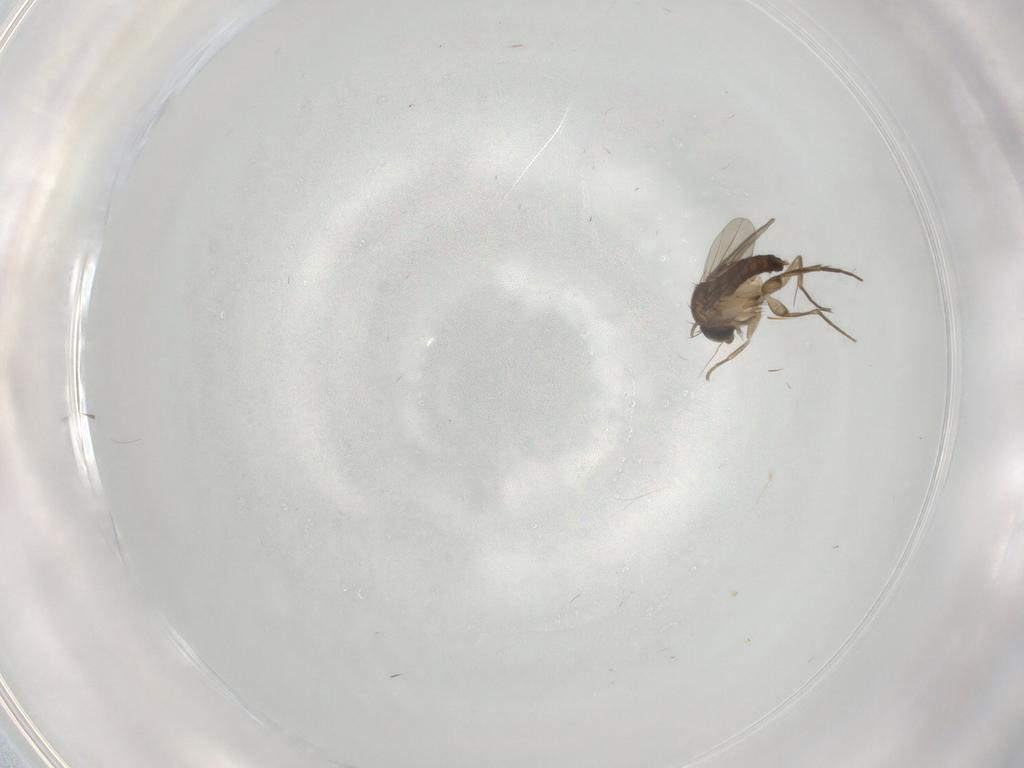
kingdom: Animalia
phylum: Arthropoda
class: Insecta
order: Diptera
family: Phoridae
